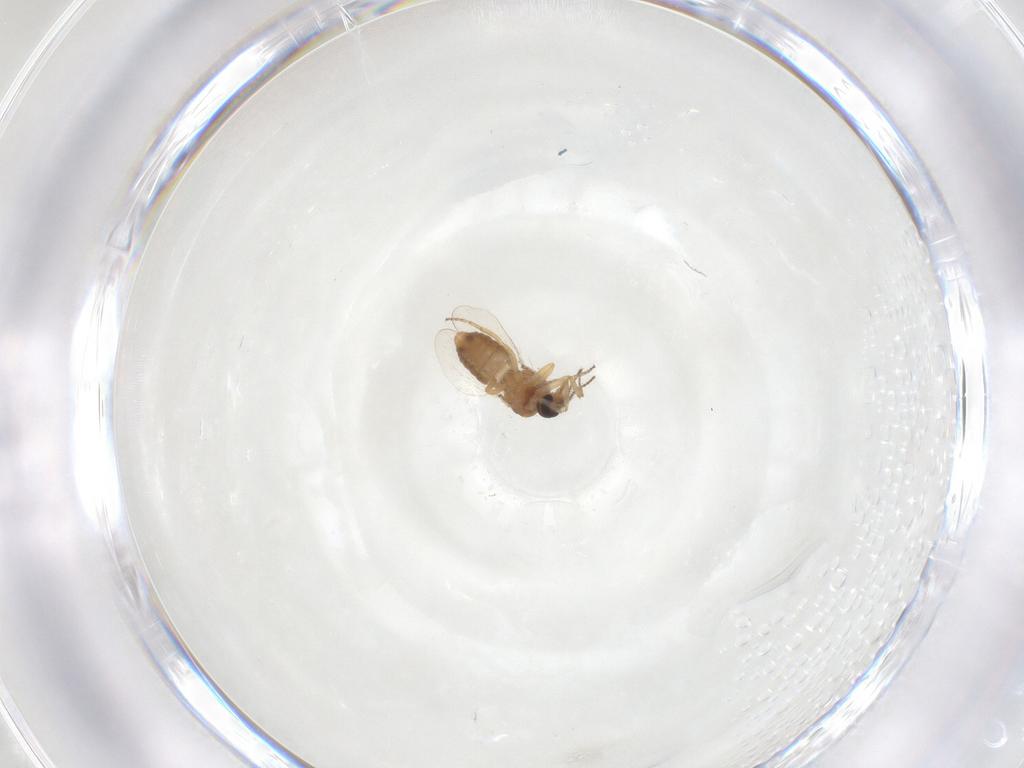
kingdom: Animalia
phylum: Arthropoda
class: Insecta
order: Diptera
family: Ceratopogonidae
